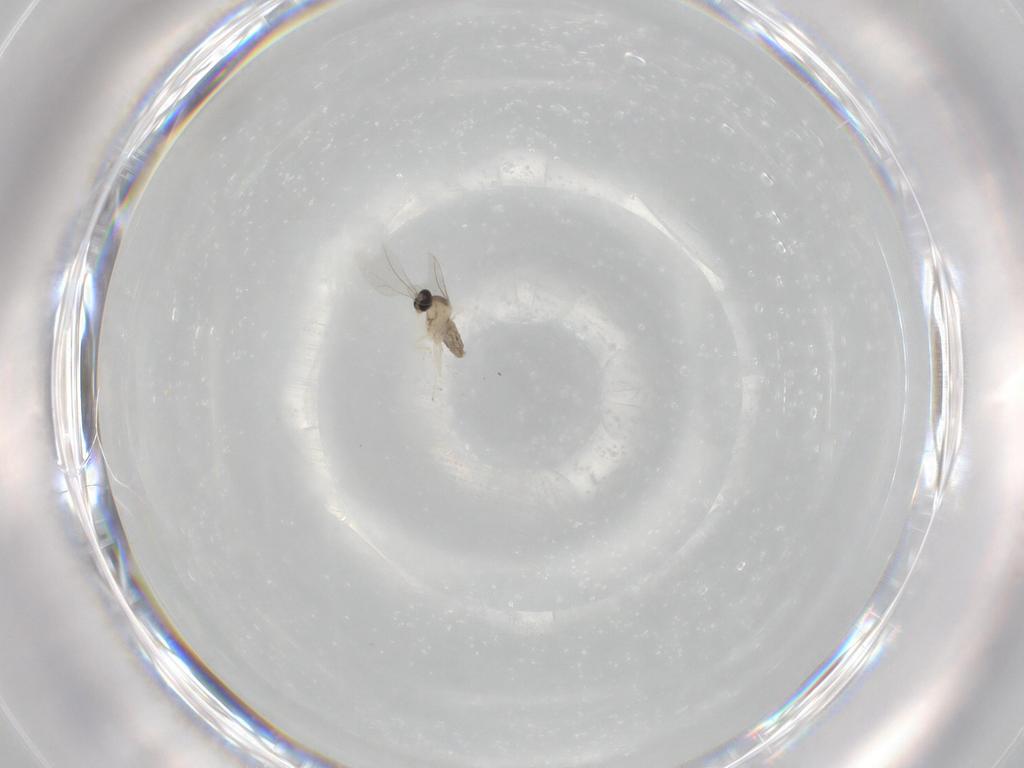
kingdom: Animalia
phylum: Arthropoda
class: Insecta
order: Diptera
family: Cecidomyiidae
